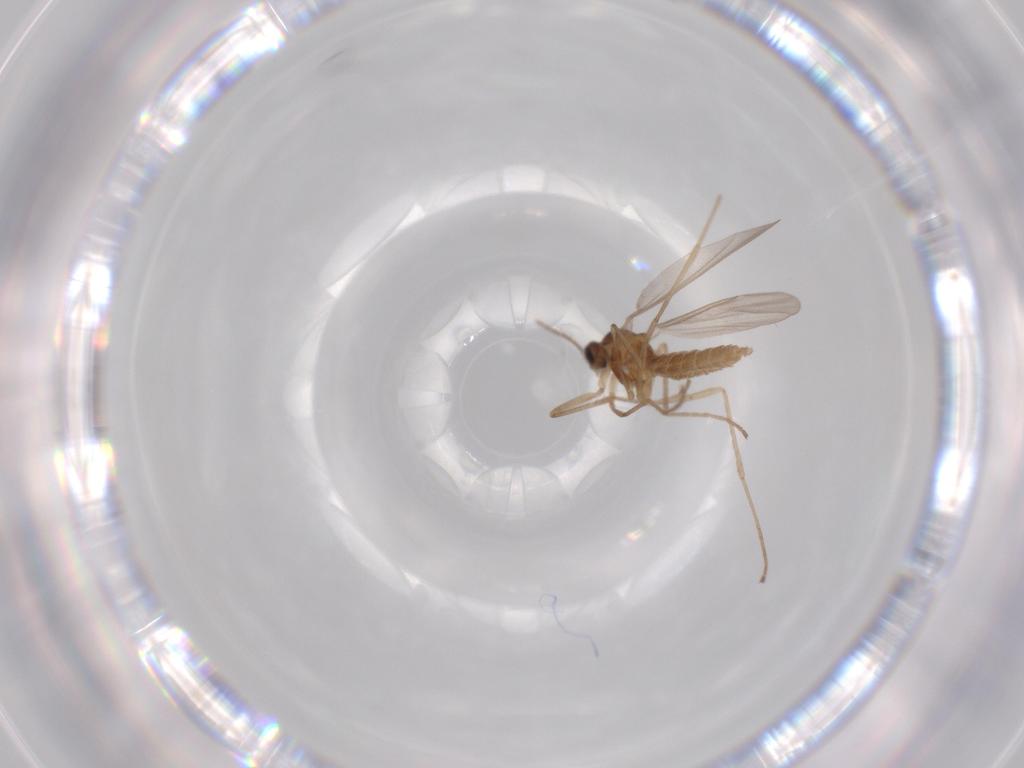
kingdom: Animalia
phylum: Arthropoda
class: Insecta
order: Diptera
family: Cecidomyiidae
